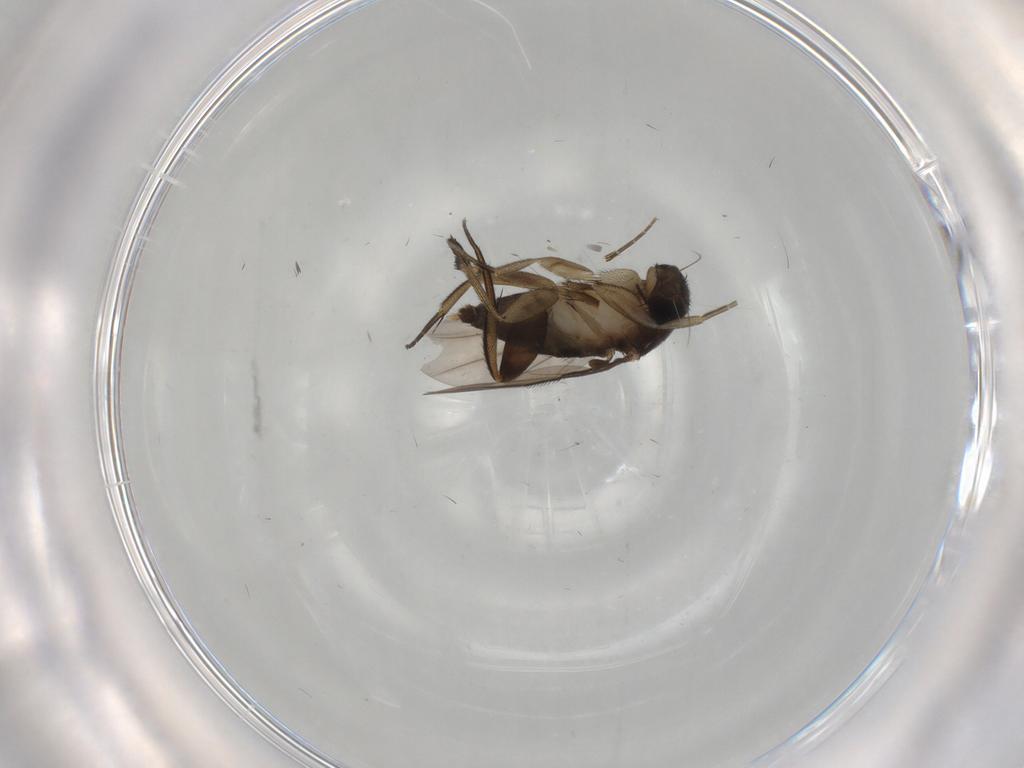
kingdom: Animalia
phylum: Arthropoda
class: Insecta
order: Diptera
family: Phoridae
